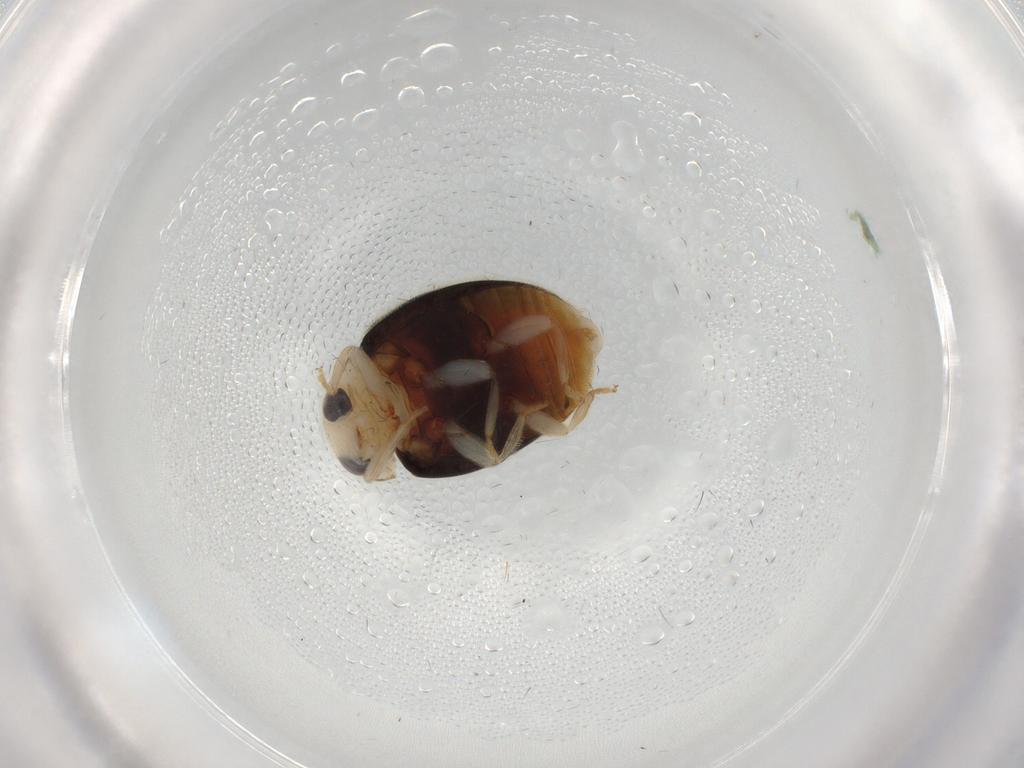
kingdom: Animalia
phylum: Arthropoda
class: Insecta
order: Coleoptera
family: Coccinellidae
